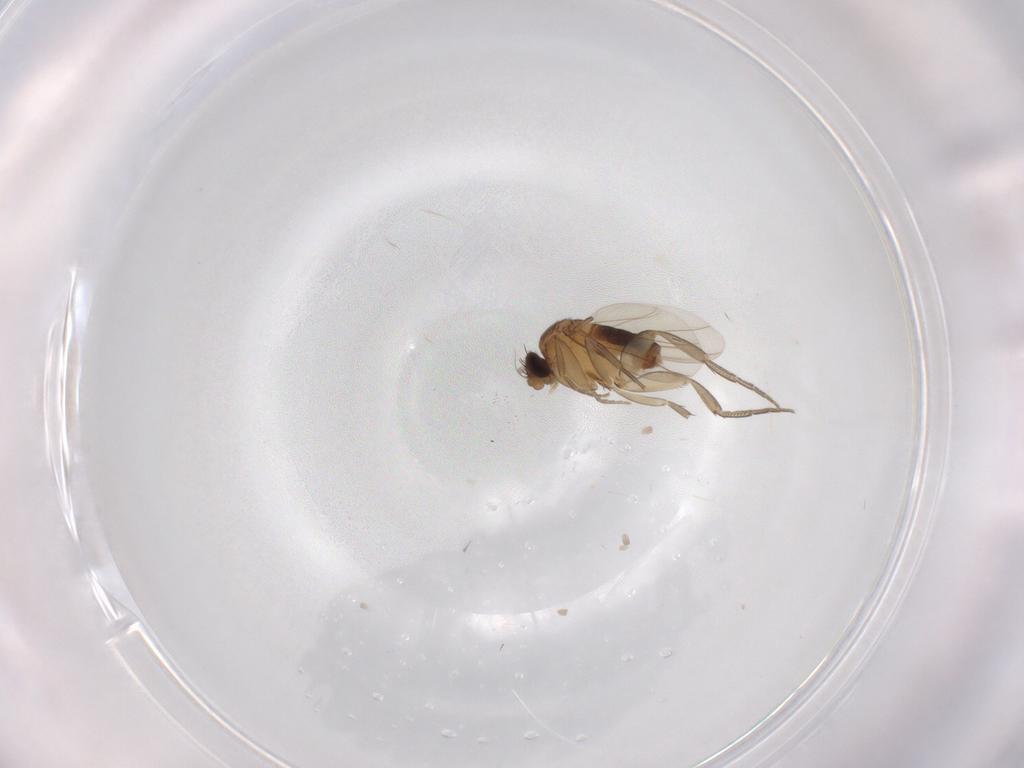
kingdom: Animalia
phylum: Arthropoda
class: Insecta
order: Diptera
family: Phoridae
